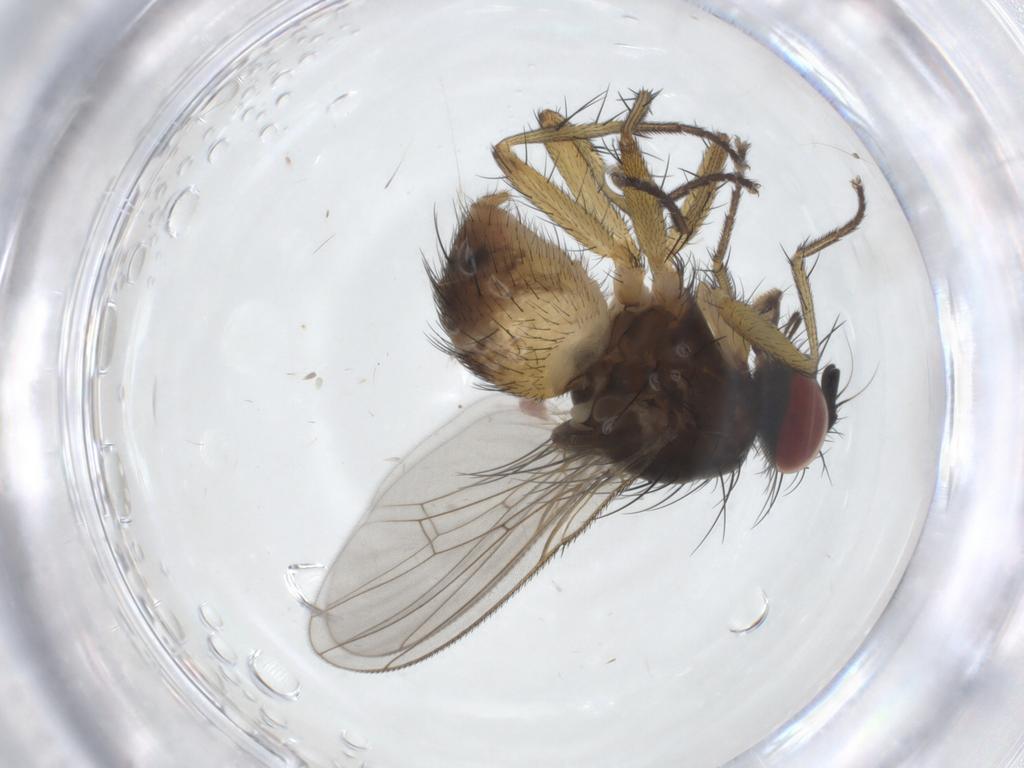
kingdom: Animalia
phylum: Arthropoda
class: Insecta
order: Diptera
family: Muscidae
